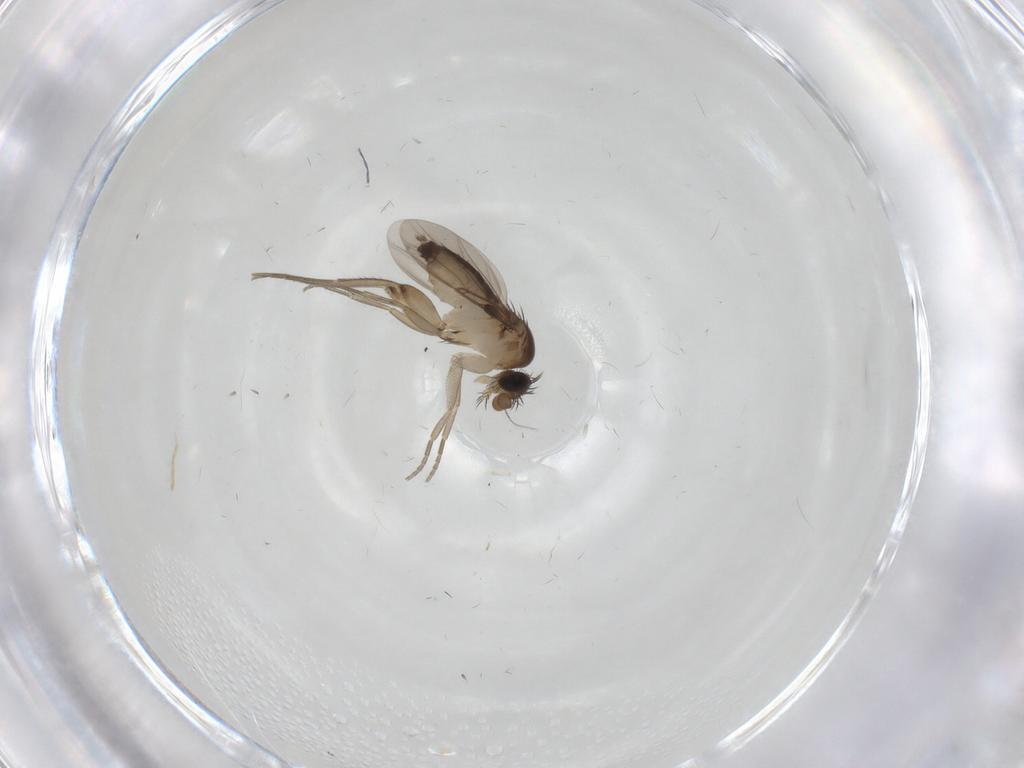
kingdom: Animalia
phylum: Arthropoda
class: Insecta
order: Diptera
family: Phoridae
